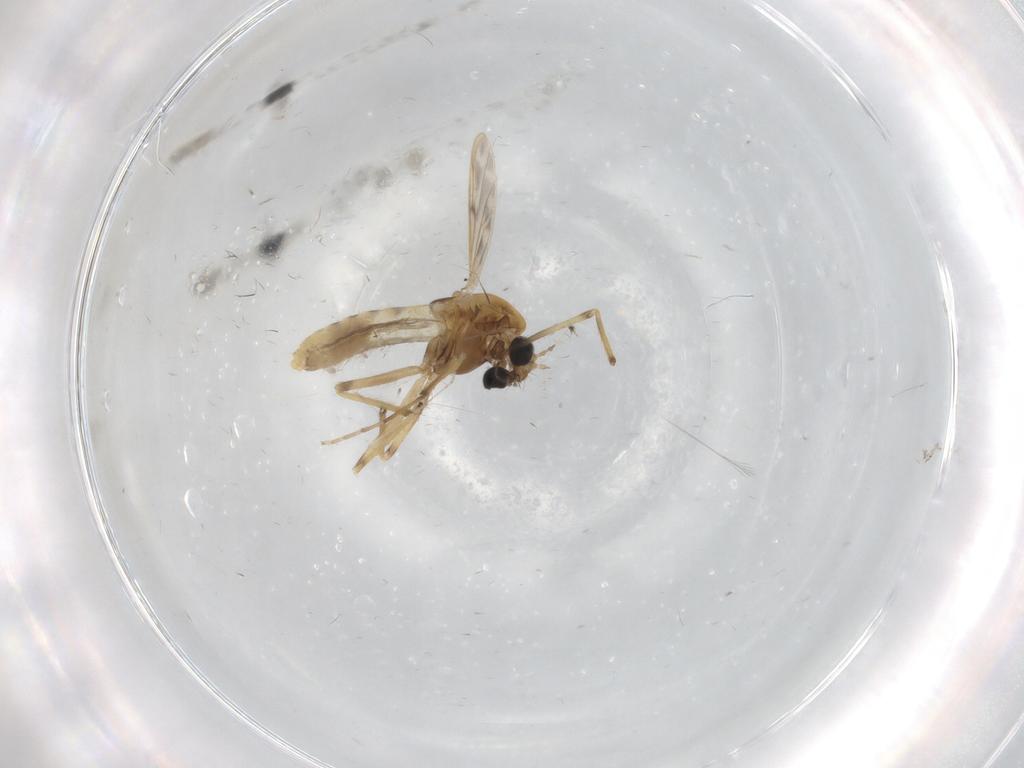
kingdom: Animalia
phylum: Arthropoda
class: Insecta
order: Diptera
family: Chironomidae
